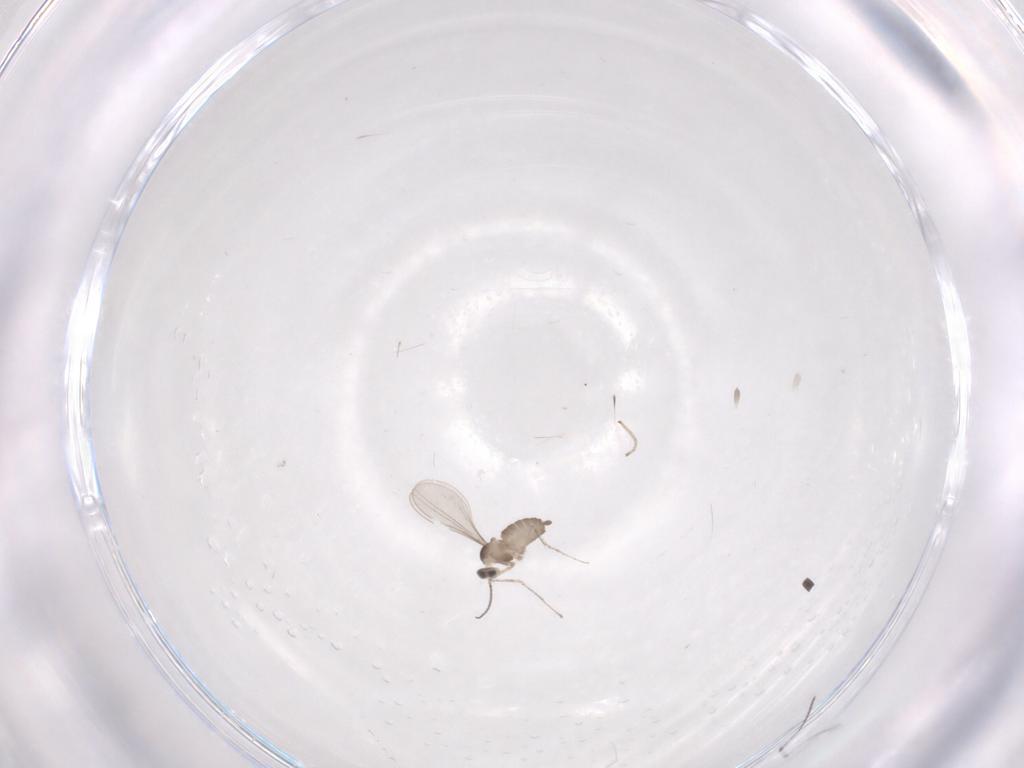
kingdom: Animalia
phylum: Arthropoda
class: Insecta
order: Diptera
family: Cecidomyiidae
